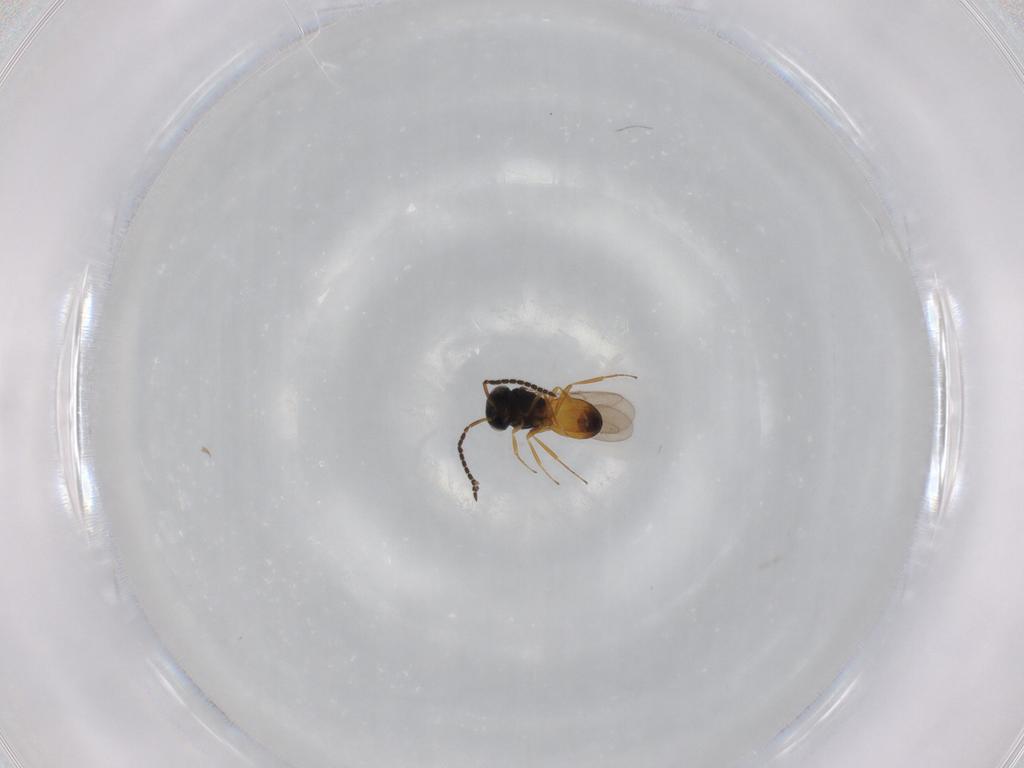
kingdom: Animalia
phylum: Arthropoda
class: Insecta
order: Hymenoptera
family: Scelionidae
